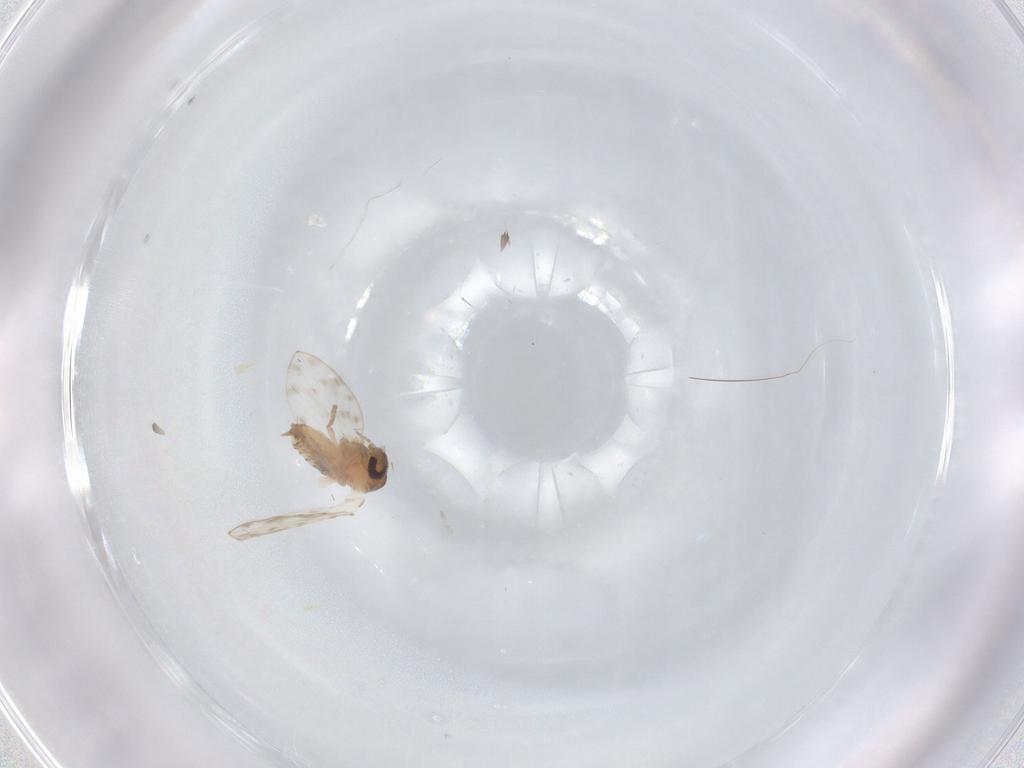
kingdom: Animalia
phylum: Arthropoda
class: Insecta
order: Diptera
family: Psychodidae
